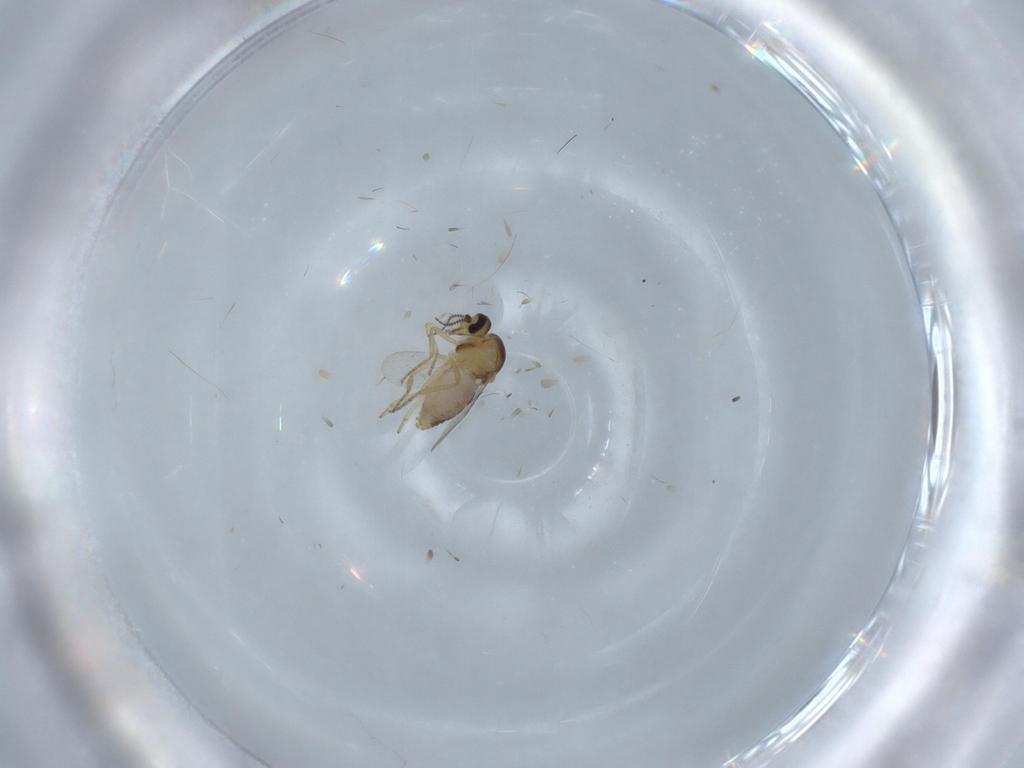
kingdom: Animalia
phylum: Arthropoda
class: Insecta
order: Diptera
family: Ceratopogonidae
